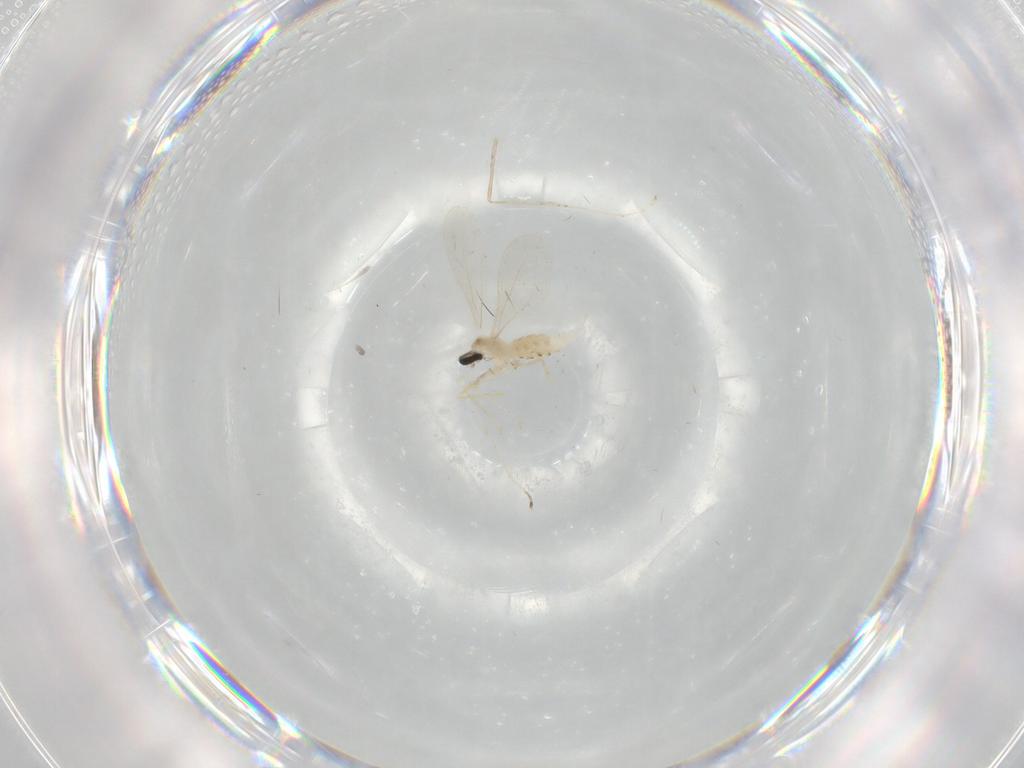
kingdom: Animalia
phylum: Arthropoda
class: Insecta
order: Diptera
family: Cecidomyiidae
